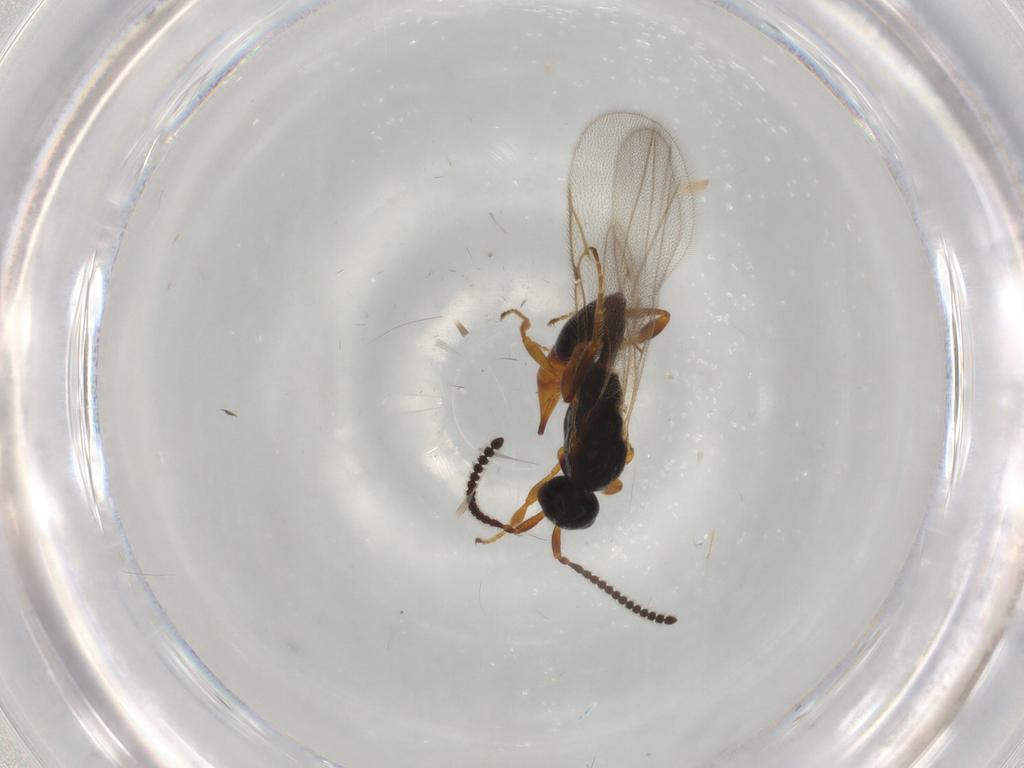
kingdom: Animalia
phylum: Arthropoda
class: Insecta
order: Hymenoptera
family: Diapriidae
